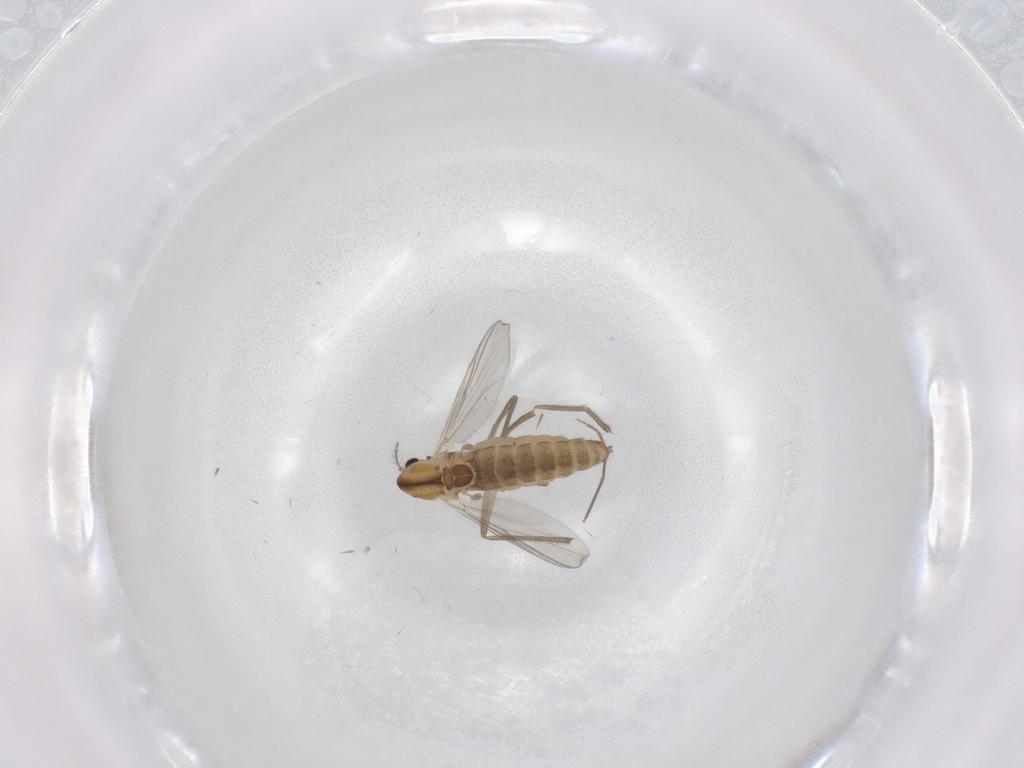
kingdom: Animalia
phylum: Arthropoda
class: Insecta
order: Diptera
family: Chironomidae
